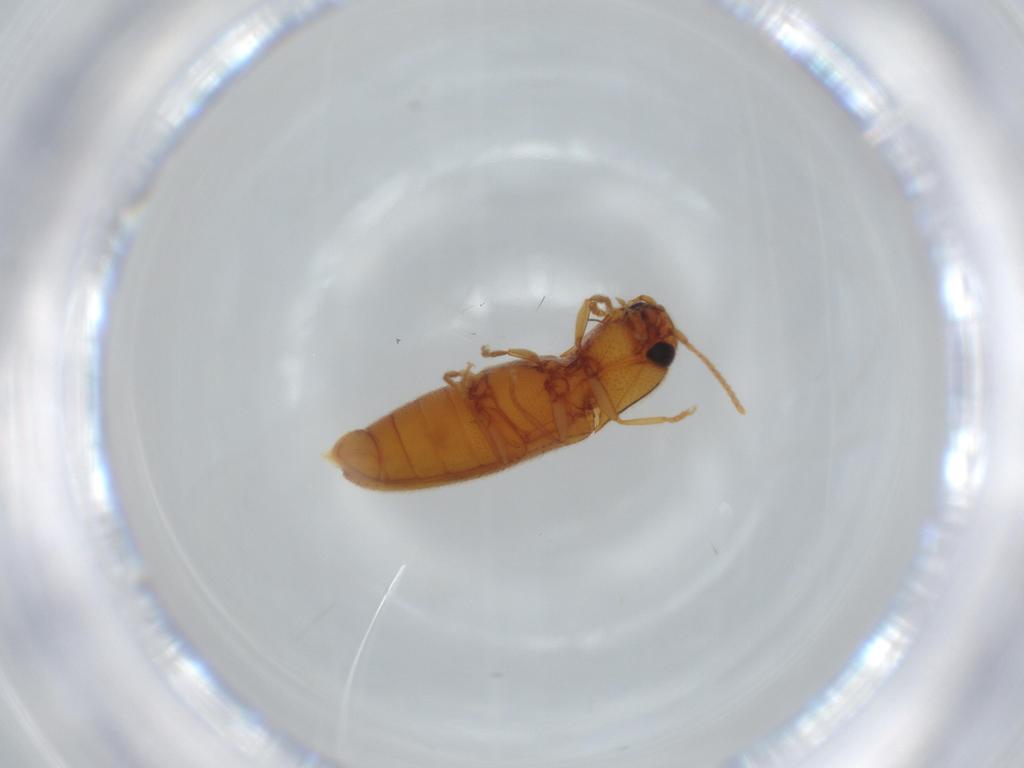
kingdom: Animalia
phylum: Arthropoda
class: Insecta
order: Coleoptera
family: Elateridae
